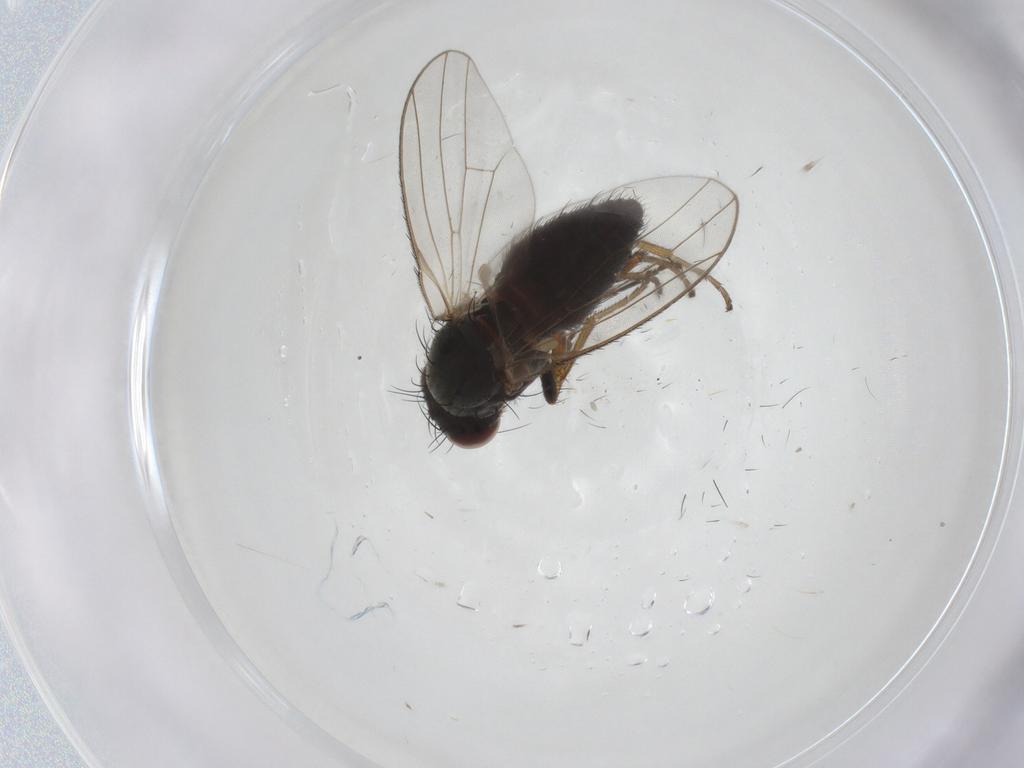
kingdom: Animalia
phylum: Arthropoda
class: Insecta
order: Diptera
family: Heleomyzidae
